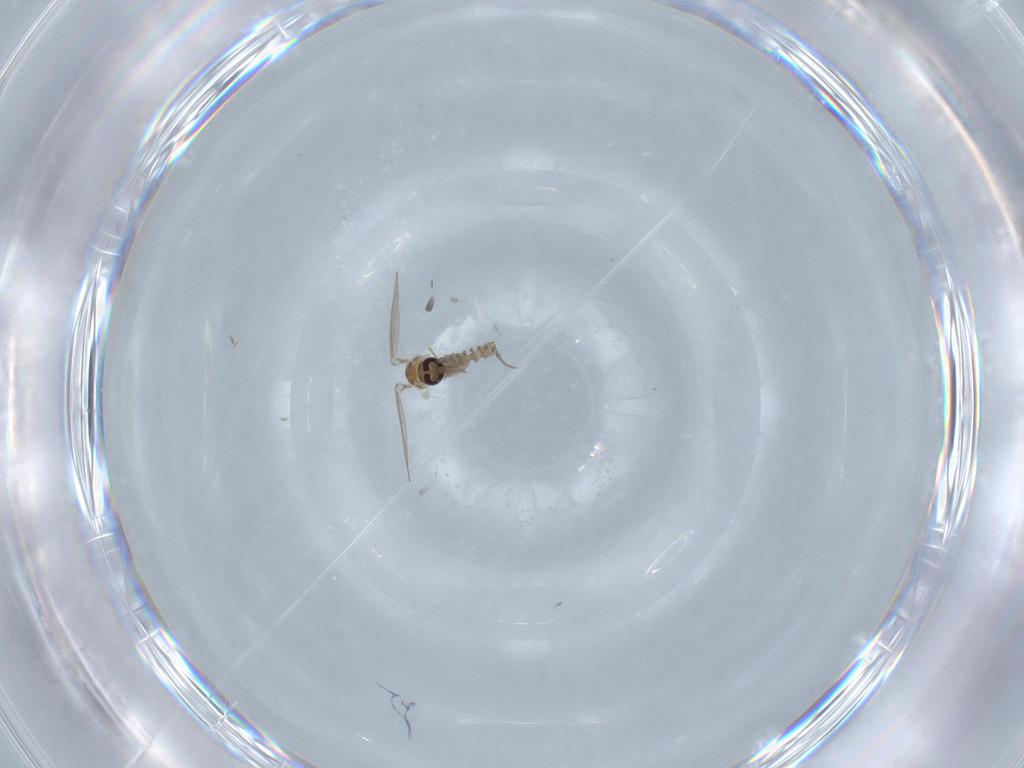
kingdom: Animalia
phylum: Arthropoda
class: Insecta
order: Diptera
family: Psychodidae
